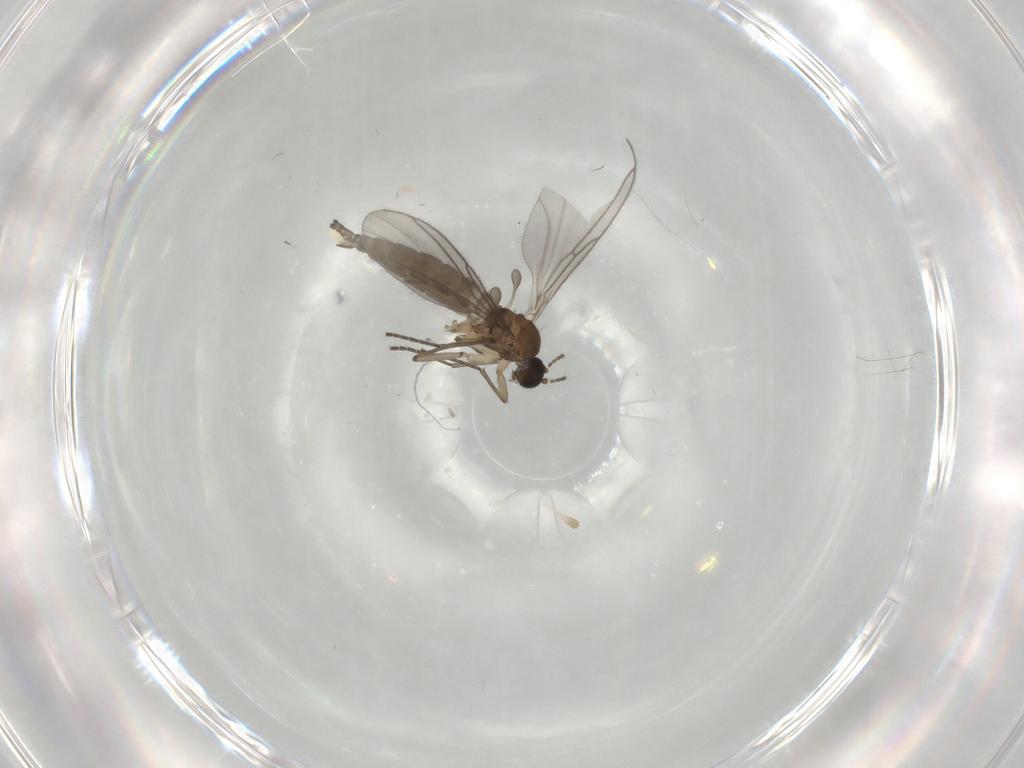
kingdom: Animalia
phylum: Arthropoda
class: Insecta
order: Diptera
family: Sciaridae
